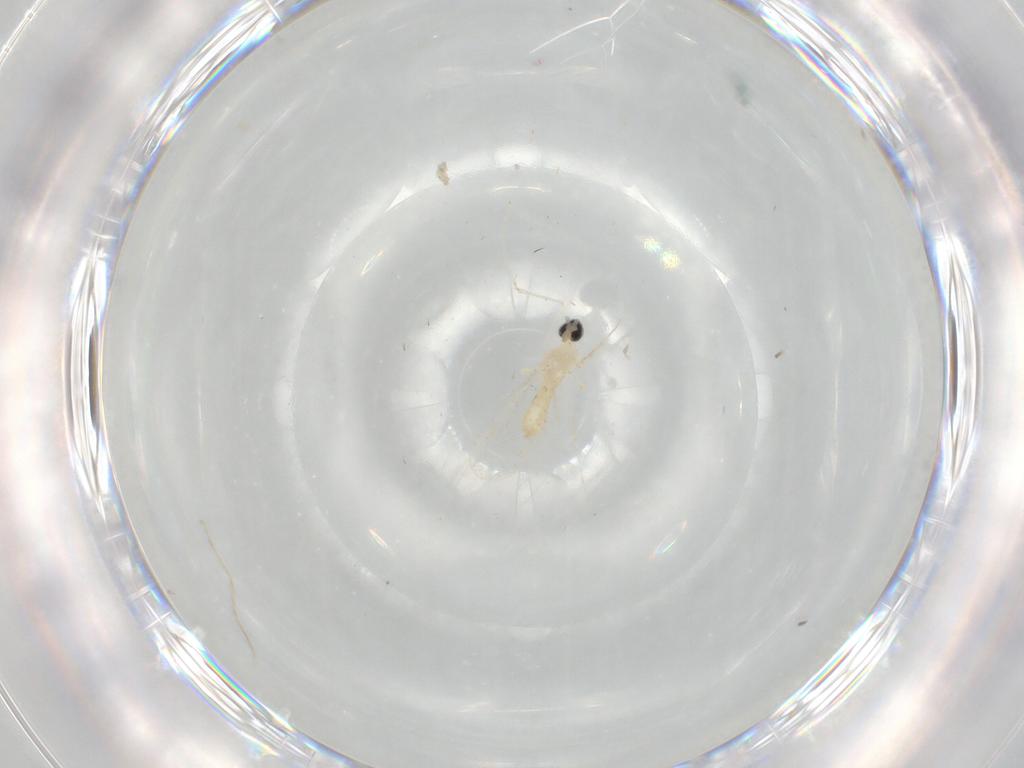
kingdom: Animalia
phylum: Arthropoda
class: Insecta
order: Diptera
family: Cecidomyiidae
